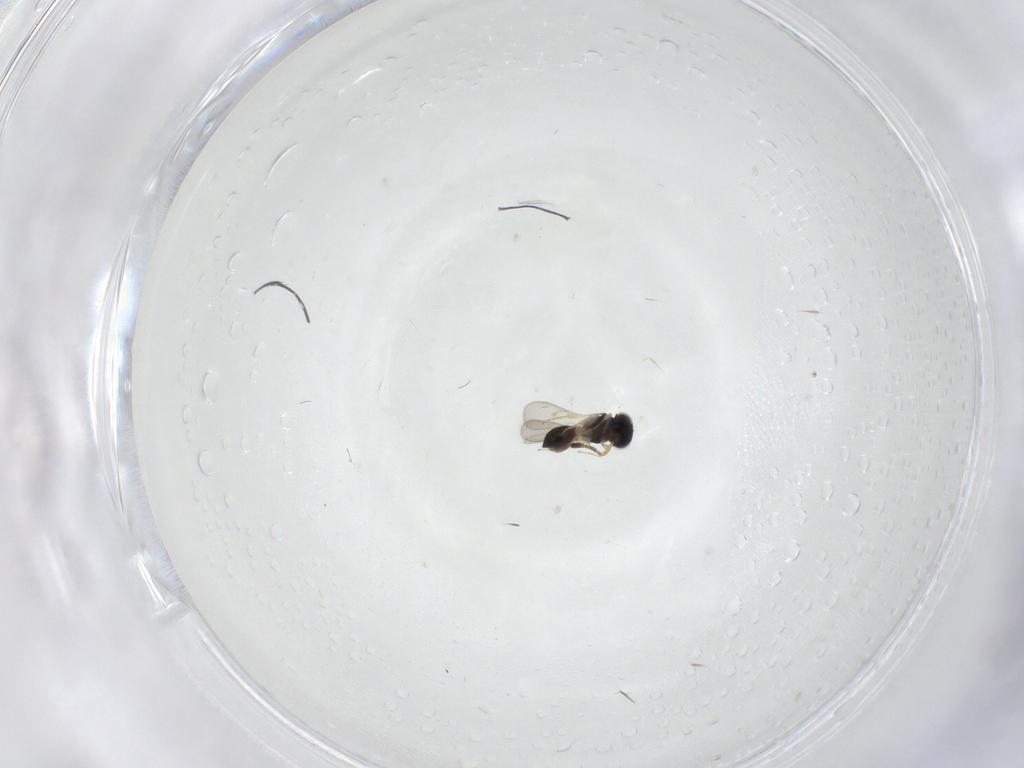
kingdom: Animalia
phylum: Arthropoda
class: Insecta
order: Hymenoptera
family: Scelionidae
